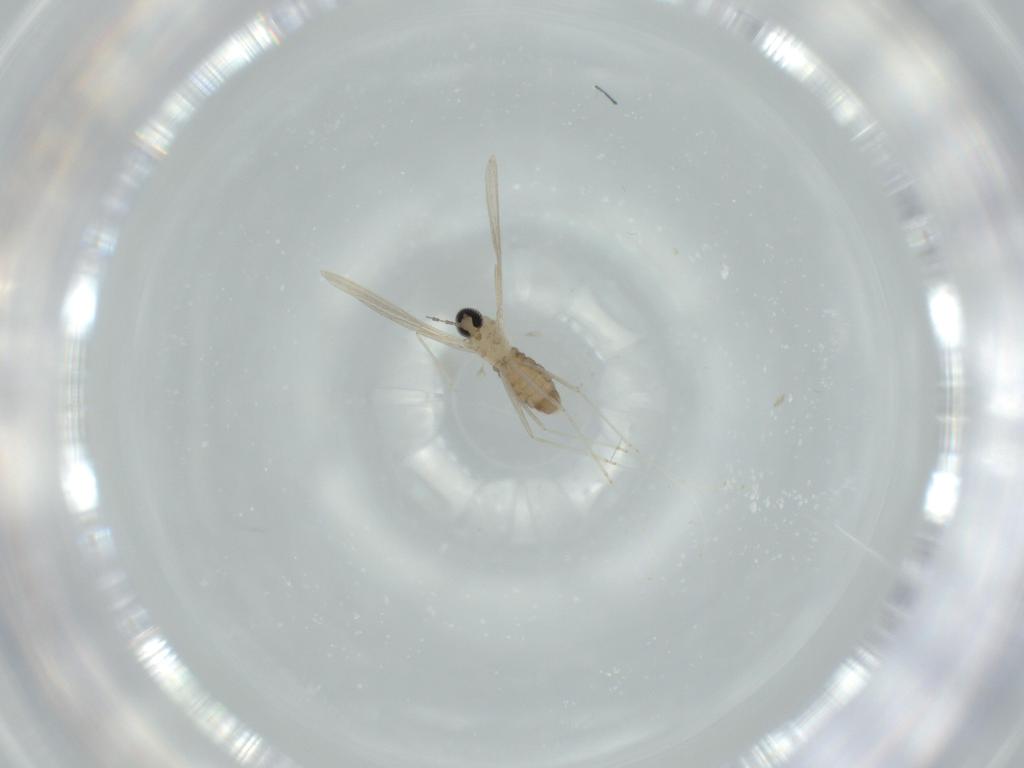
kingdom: Animalia
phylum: Arthropoda
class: Insecta
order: Diptera
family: Cecidomyiidae
